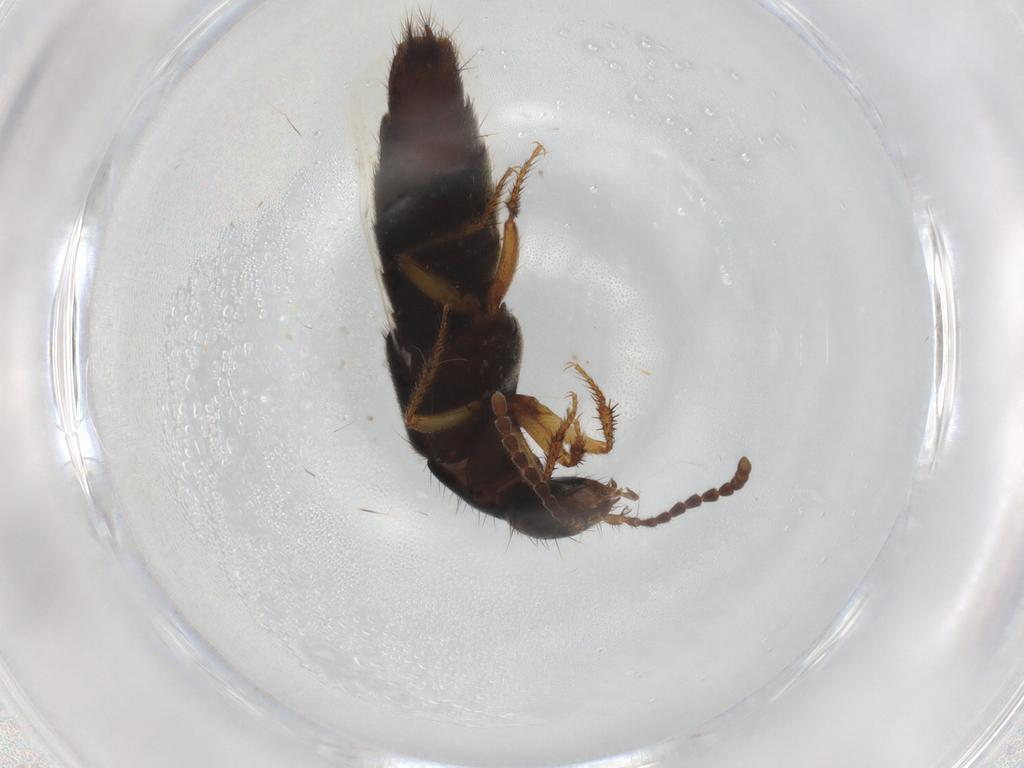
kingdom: Animalia
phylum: Arthropoda
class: Insecta
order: Coleoptera
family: Staphylinidae
